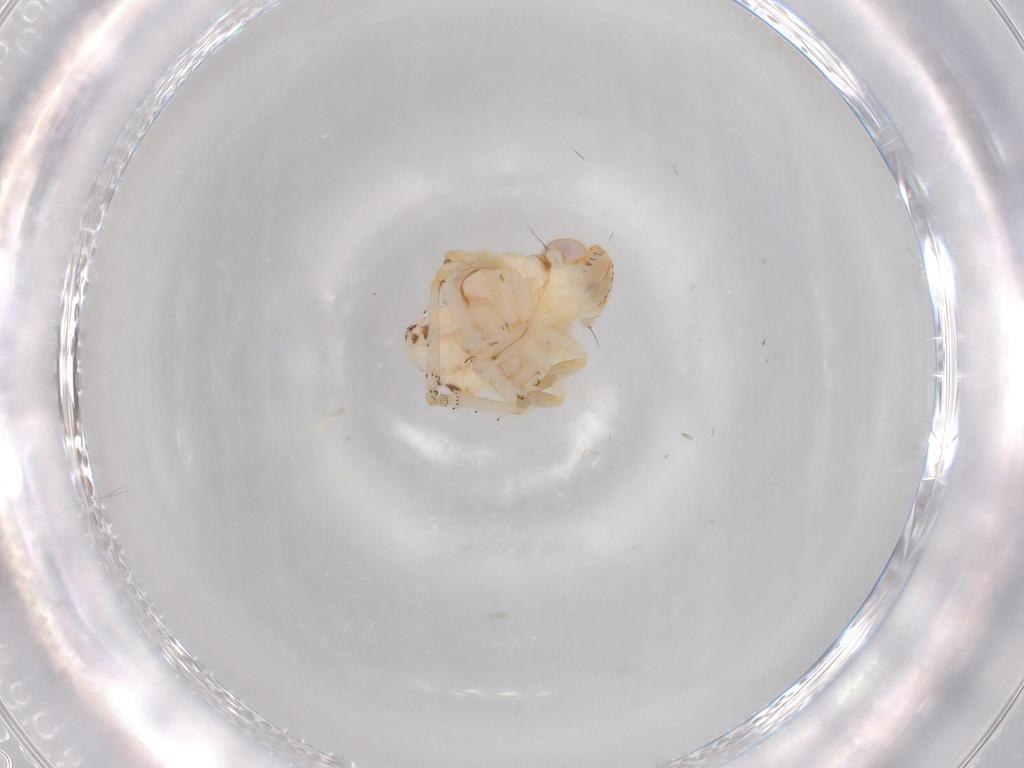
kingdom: Animalia
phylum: Arthropoda
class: Insecta
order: Hemiptera
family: Nogodinidae
